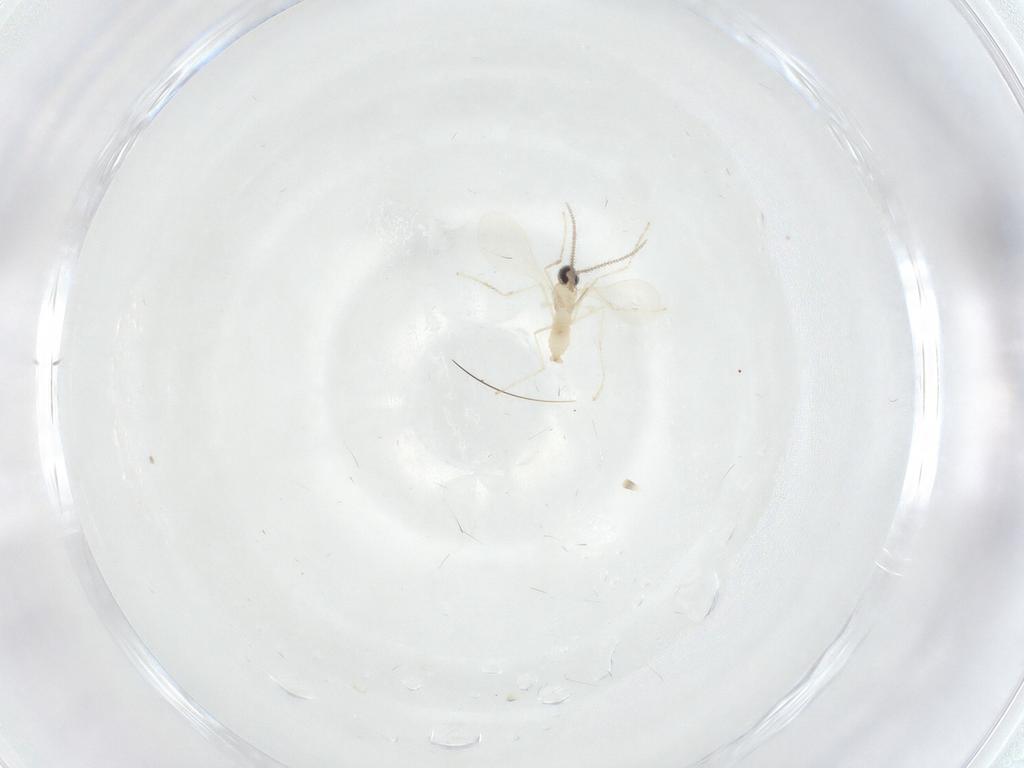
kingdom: Animalia
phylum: Arthropoda
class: Insecta
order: Diptera
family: Cecidomyiidae
